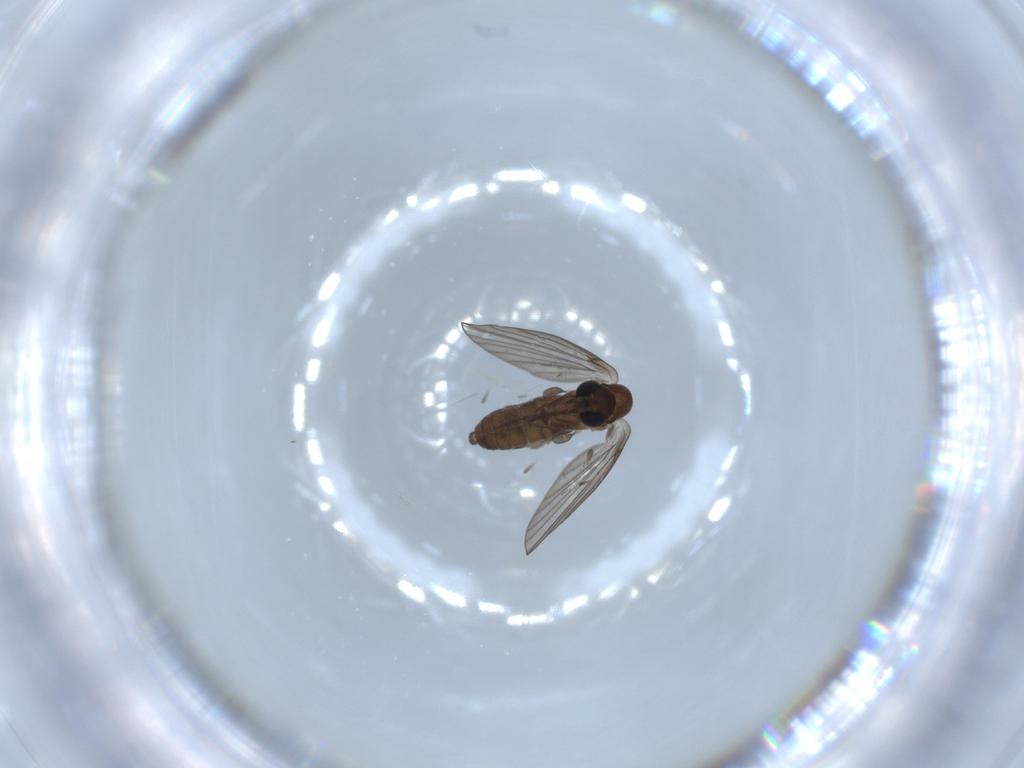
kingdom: Animalia
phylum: Arthropoda
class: Insecta
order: Diptera
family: Psychodidae
